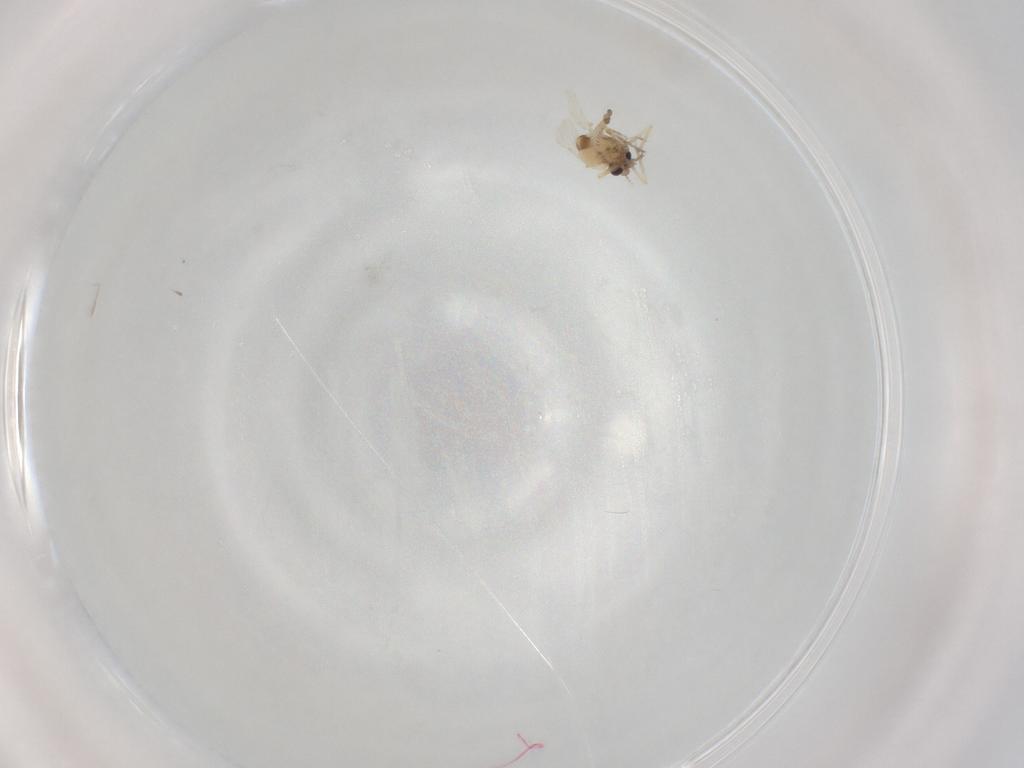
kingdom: Animalia
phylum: Arthropoda
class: Insecta
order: Diptera
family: Ceratopogonidae
